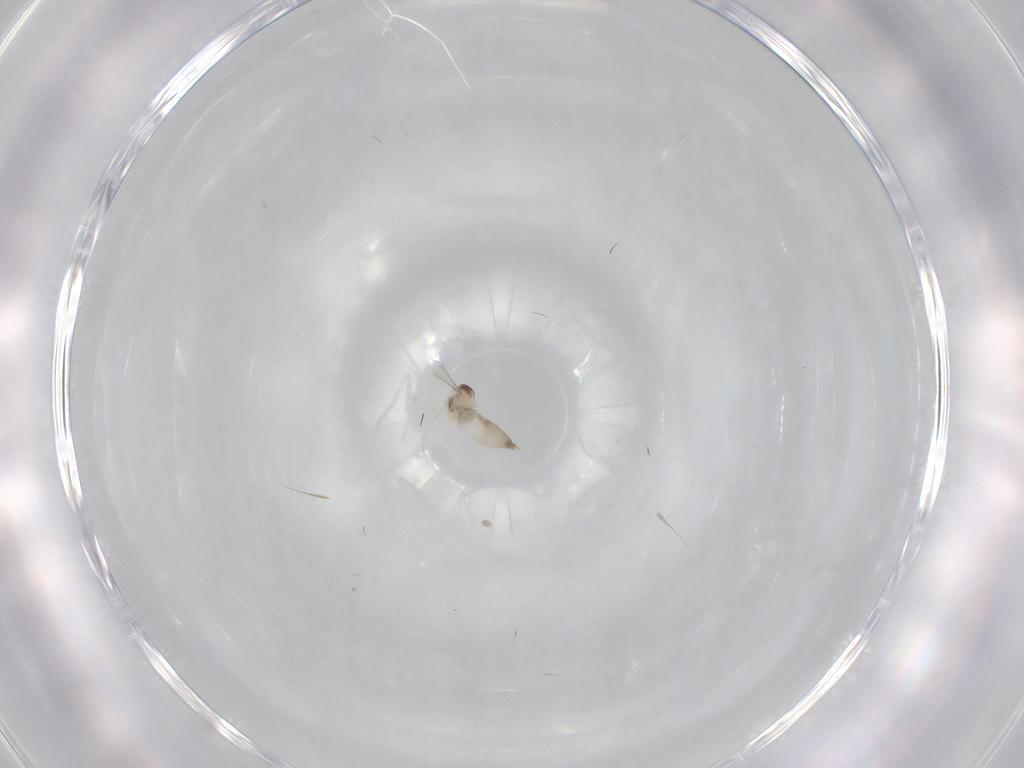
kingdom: Animalia
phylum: Arthropoda
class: Insecta
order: Diptera
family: Cecidomyiidae
